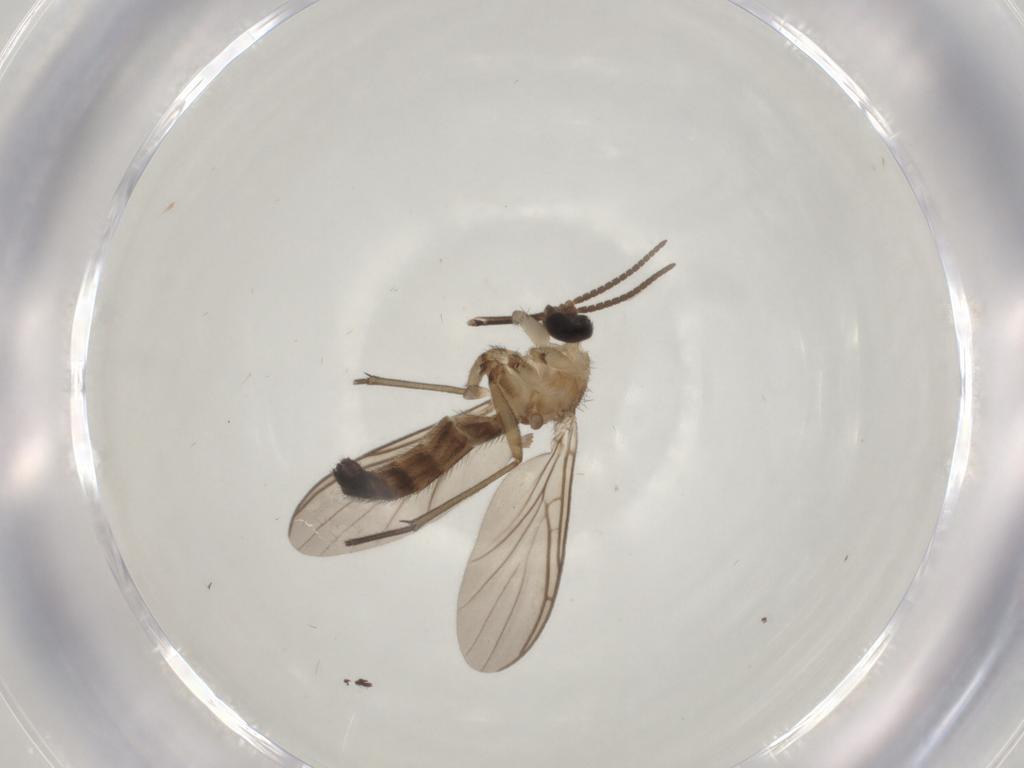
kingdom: Animalia
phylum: Arthropoda
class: Insecta
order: Diptera
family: Keroplatidae
